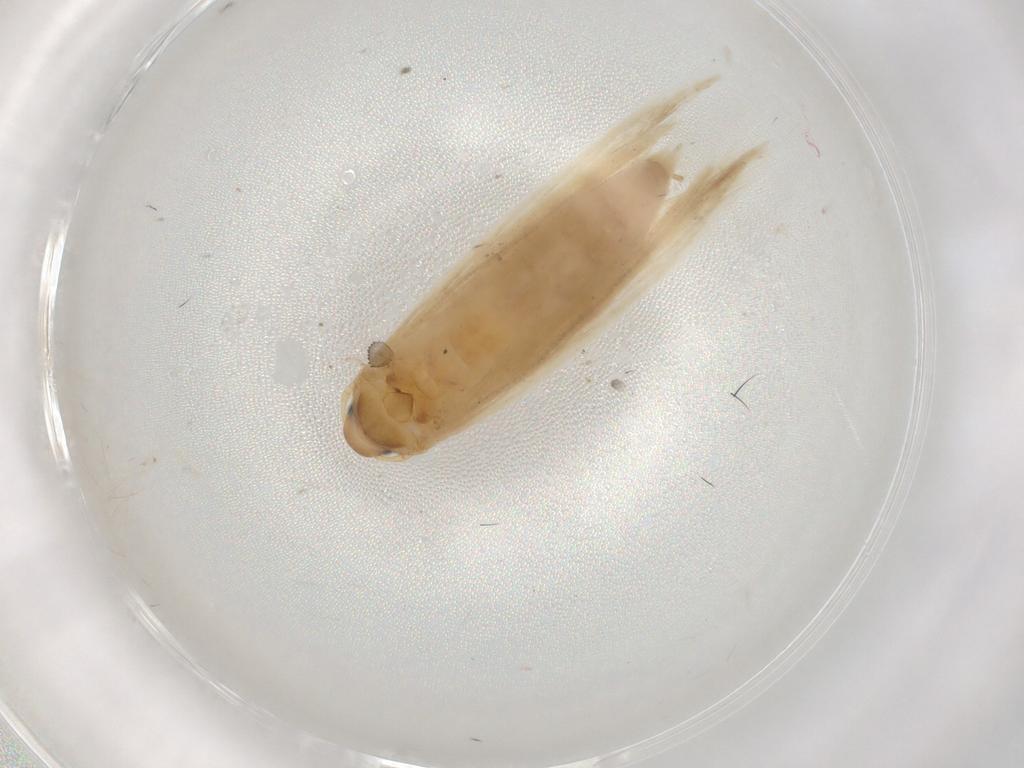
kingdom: Animalia
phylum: Arthropoda
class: Insecta
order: Lepidoptera
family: Gelechiidae
